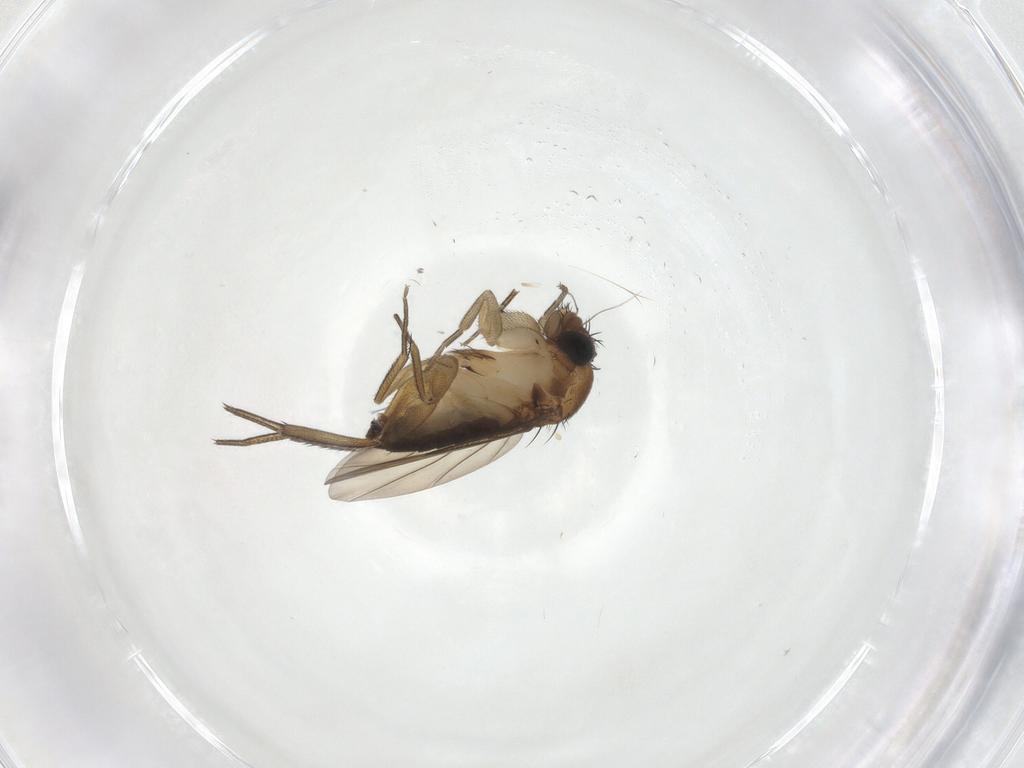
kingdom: Animalia
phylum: Arthropoda
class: Insecta
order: Diptera
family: Phoridae
